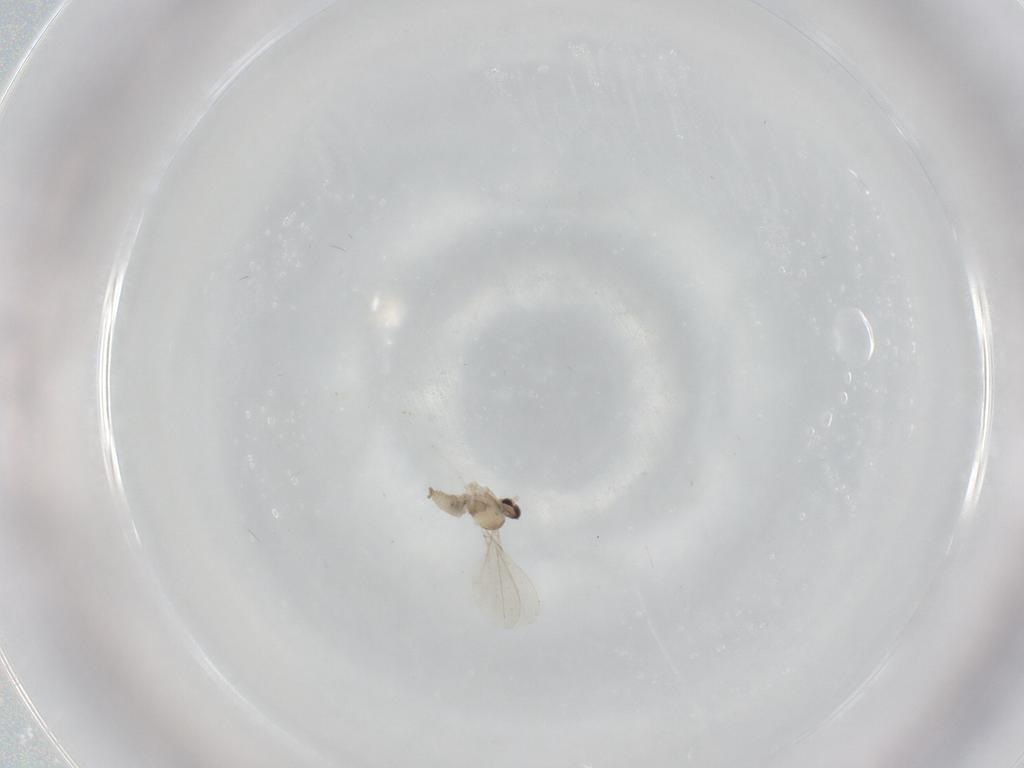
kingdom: Animalia
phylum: Arthropoda
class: Insecta
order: Diptera
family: Cecidomyiidae
